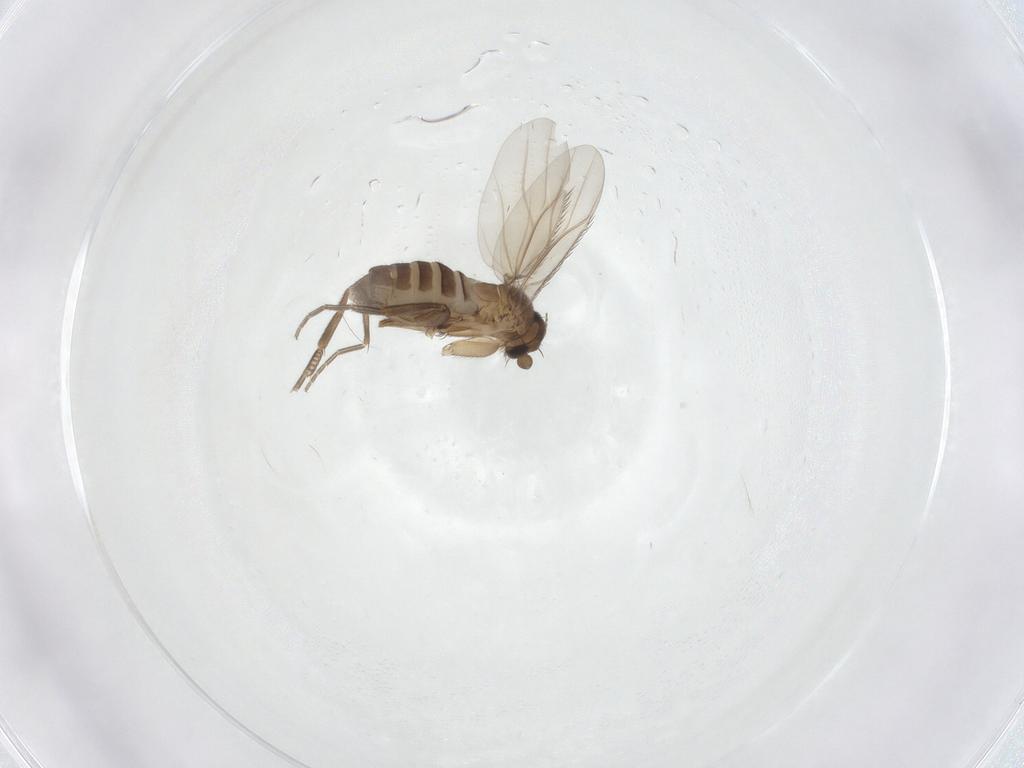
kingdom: Animalia
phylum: Arthropoda
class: Insecta
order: Diptera
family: Phoridae
